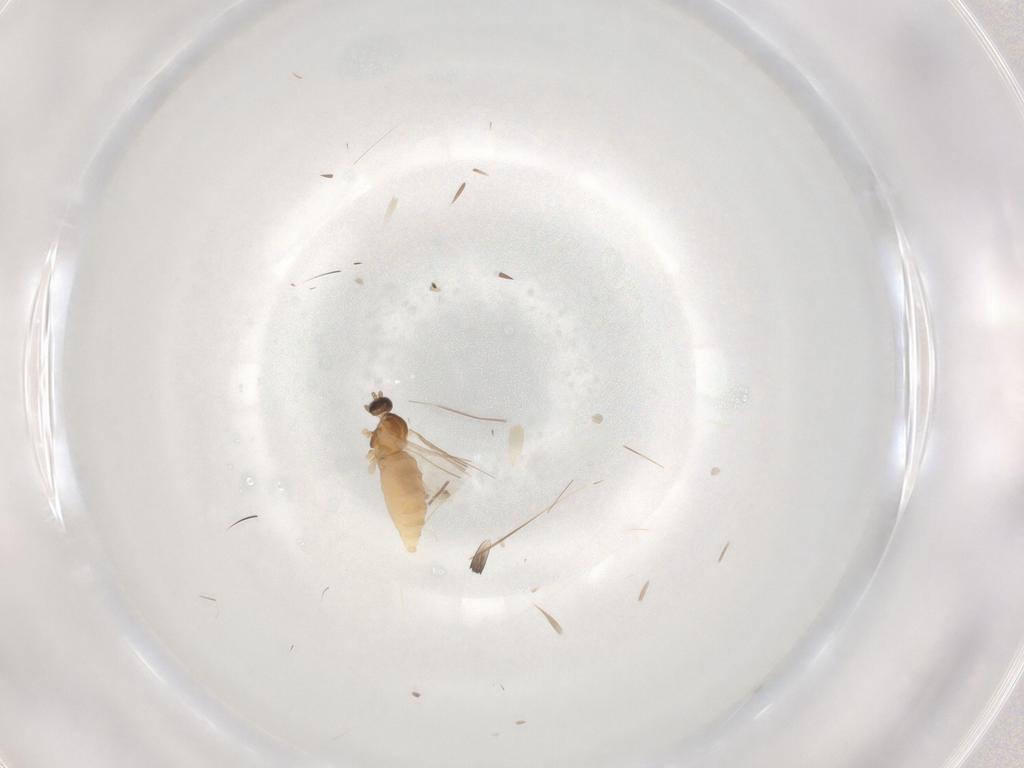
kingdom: Animalia
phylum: Arthropoda
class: Insecta
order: Diptera
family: Cecidomyiidae
